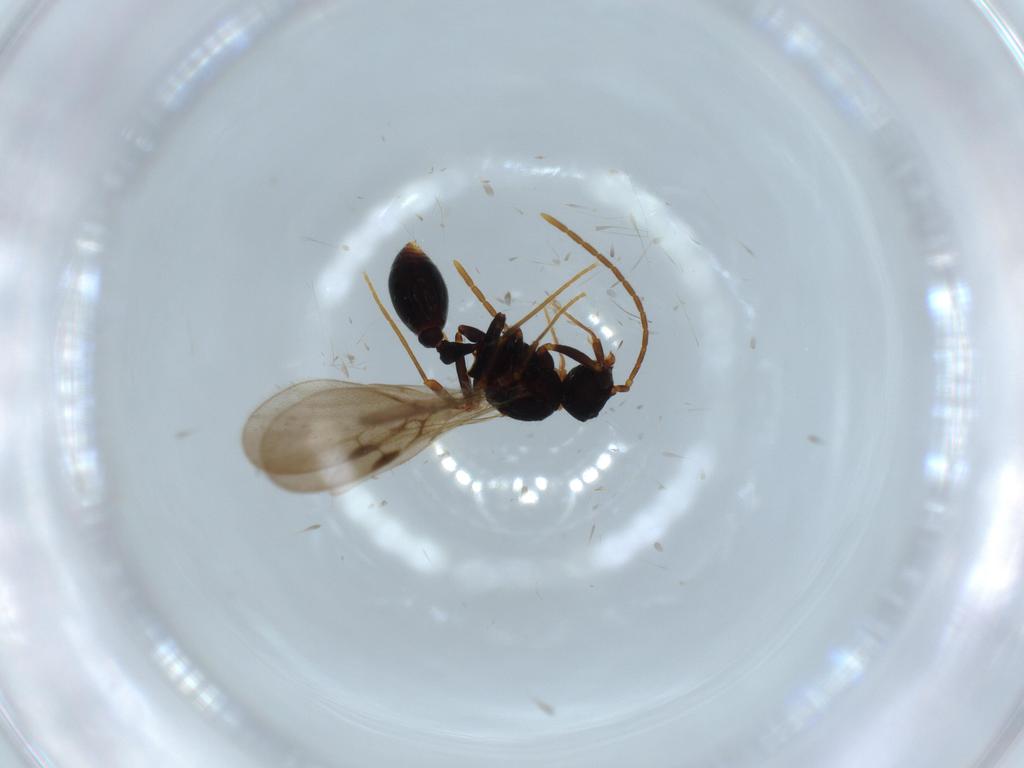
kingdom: Animalia
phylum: Arthropoda
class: Insecta
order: Hymenoptera
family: Formicidae
